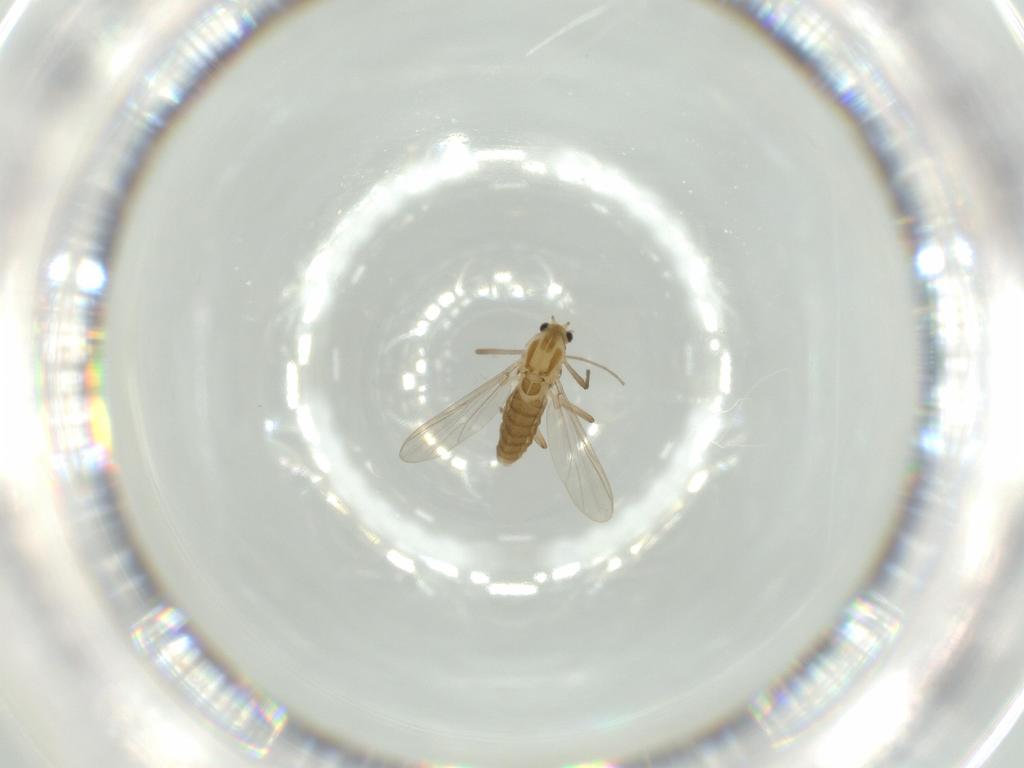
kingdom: Animalia
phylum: Arthropoda
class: Insecta
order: Diptera
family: Chironomidae
